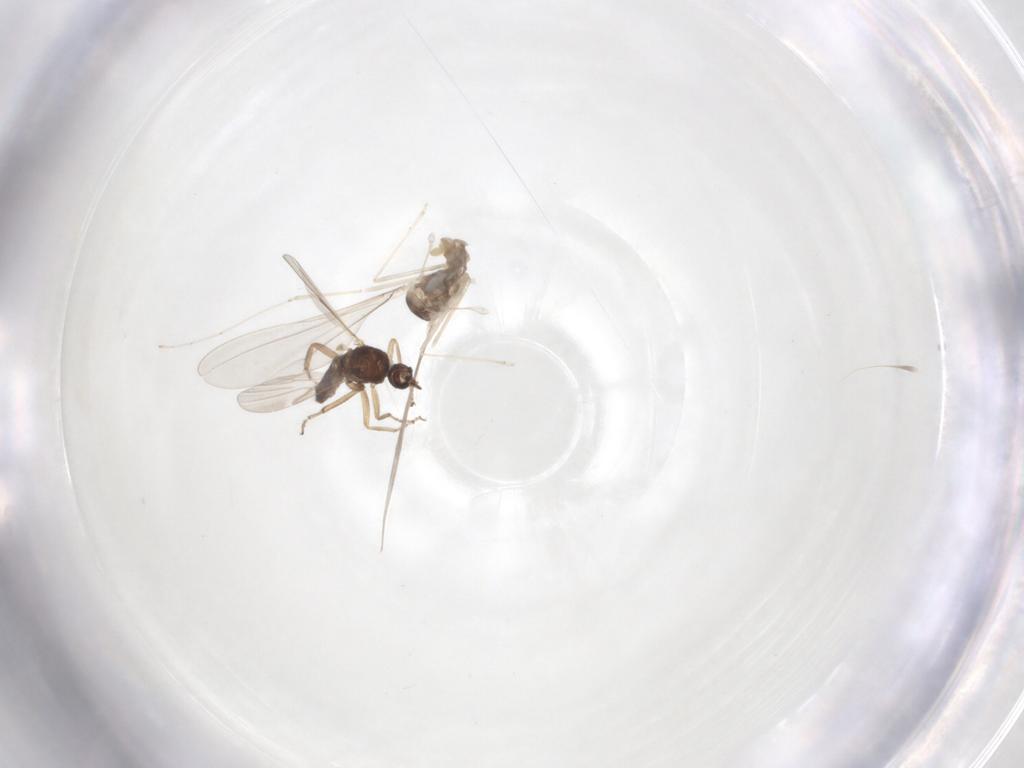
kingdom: Animalia
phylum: Arthropoda
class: Insecta
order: Diptera
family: Cecidomyiidae
